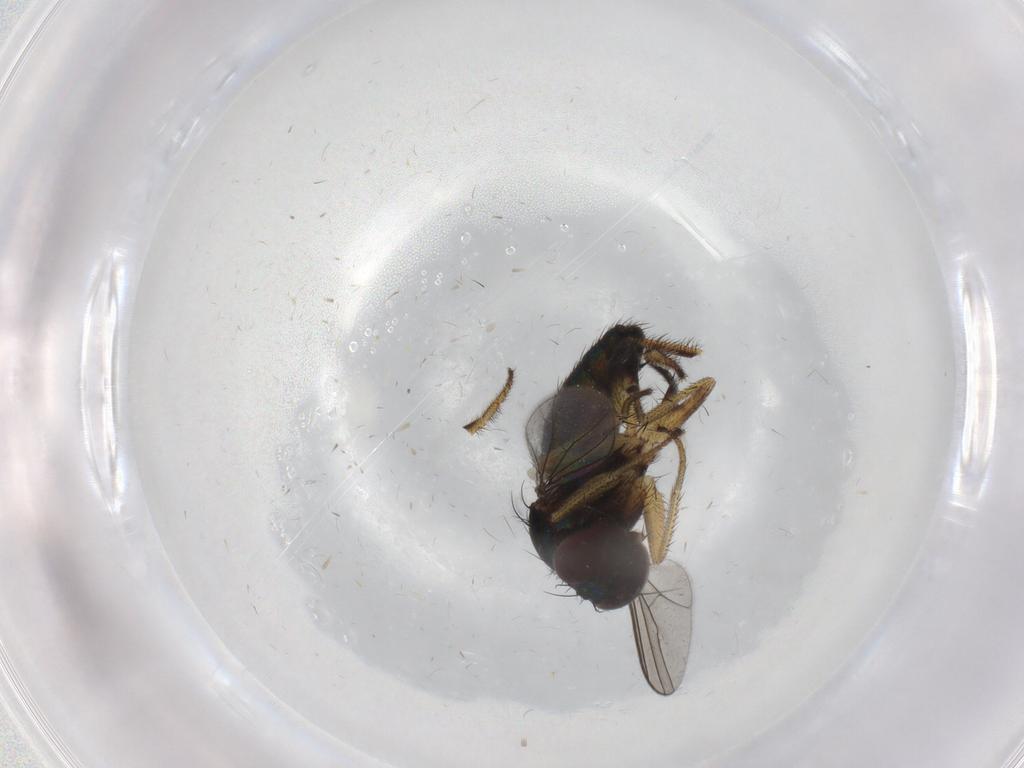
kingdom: Animalia
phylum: Arthropoda
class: Insecta
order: Diptera
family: Dolichopodidae
